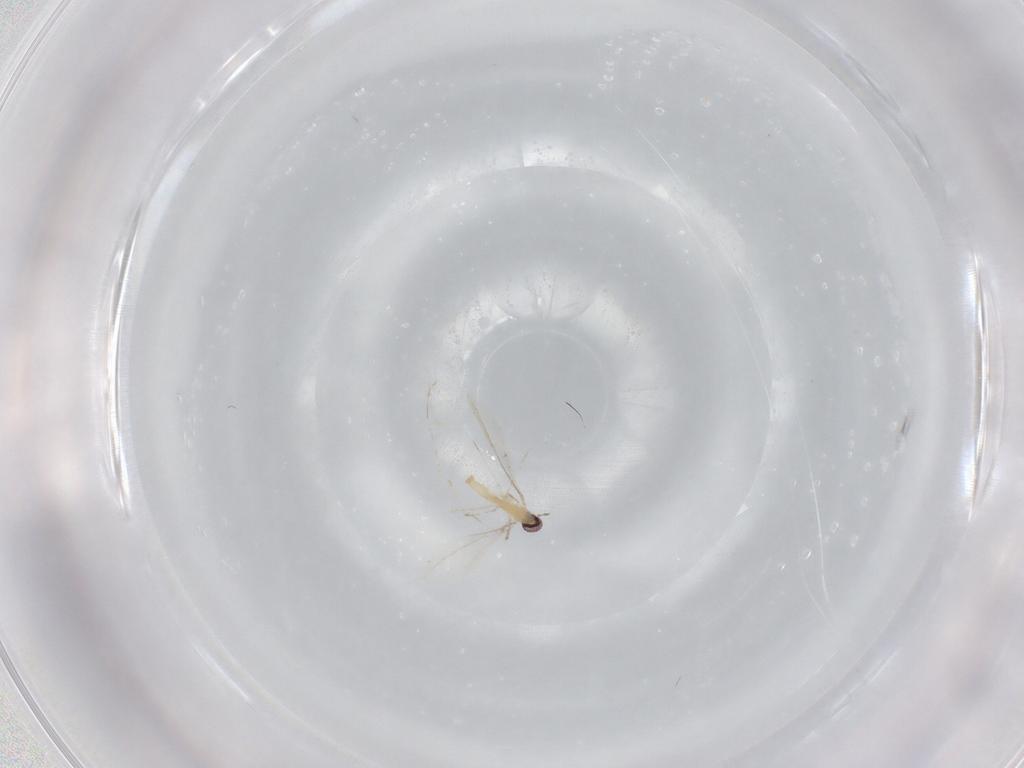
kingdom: Animalia
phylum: Arthropoda
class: Insecta
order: Diptera
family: Cecidomyiidae
